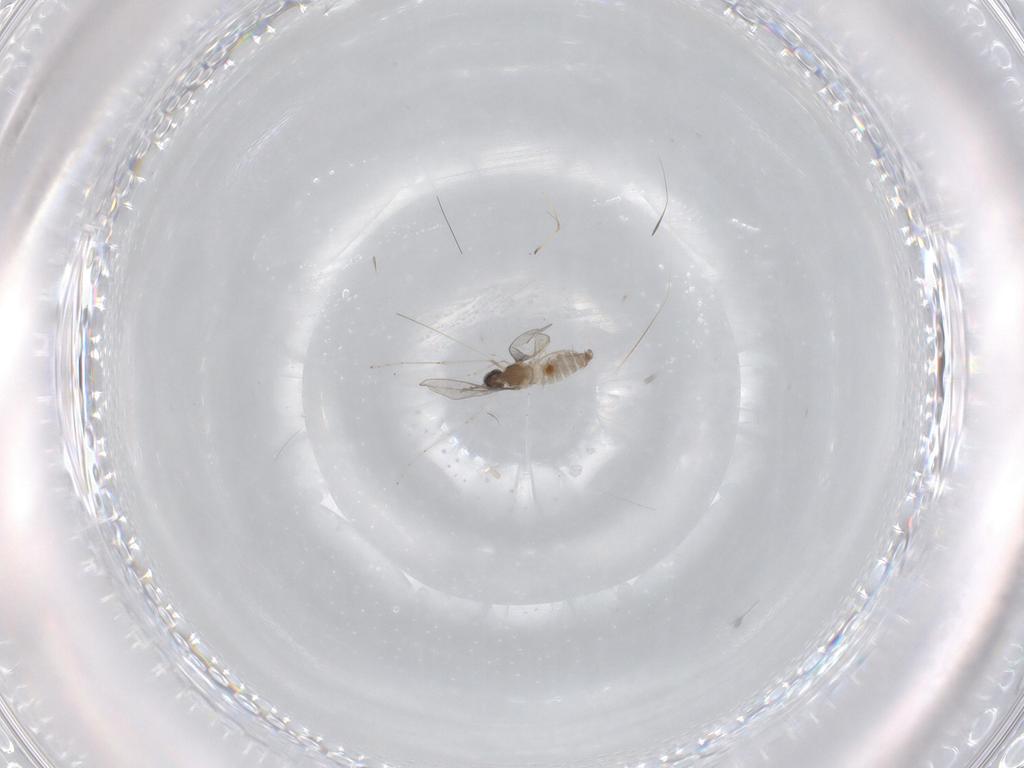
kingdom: Animalia
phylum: Arthropoda
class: Insecta
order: Diptera
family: Cecidomyiidae
